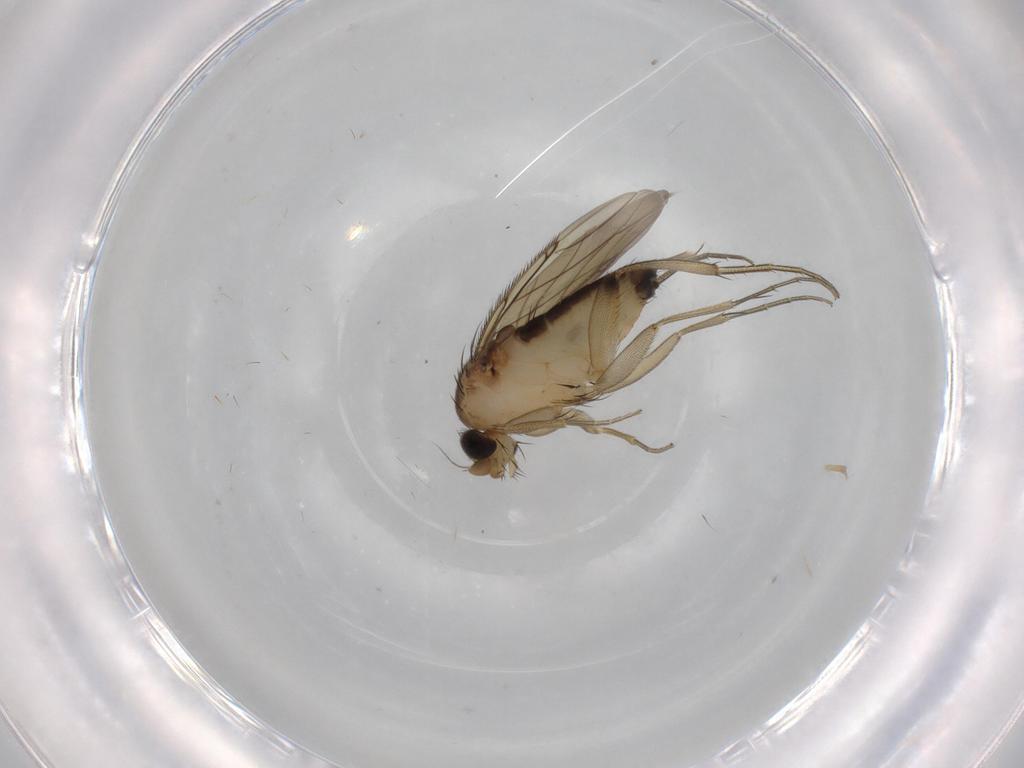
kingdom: Animalia
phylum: Arthropoda
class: Insecta
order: Diptera
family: Phoridae
